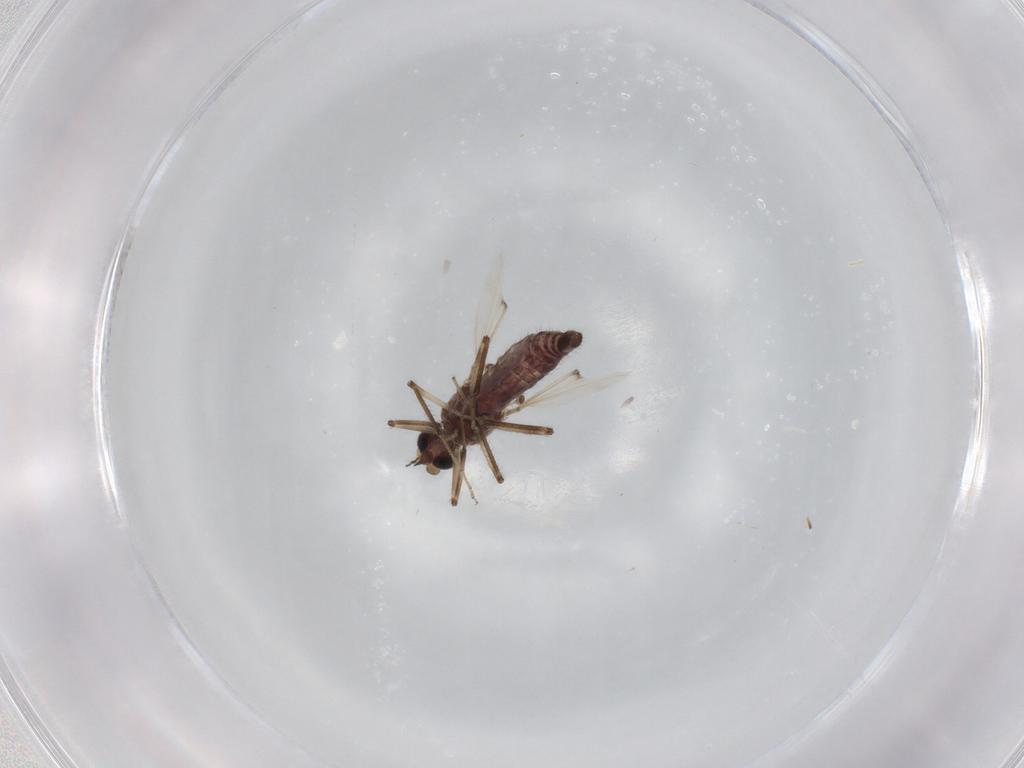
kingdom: Animalia
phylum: Arthropoda
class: Insecta
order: Diptera
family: Ceratopogonidae
